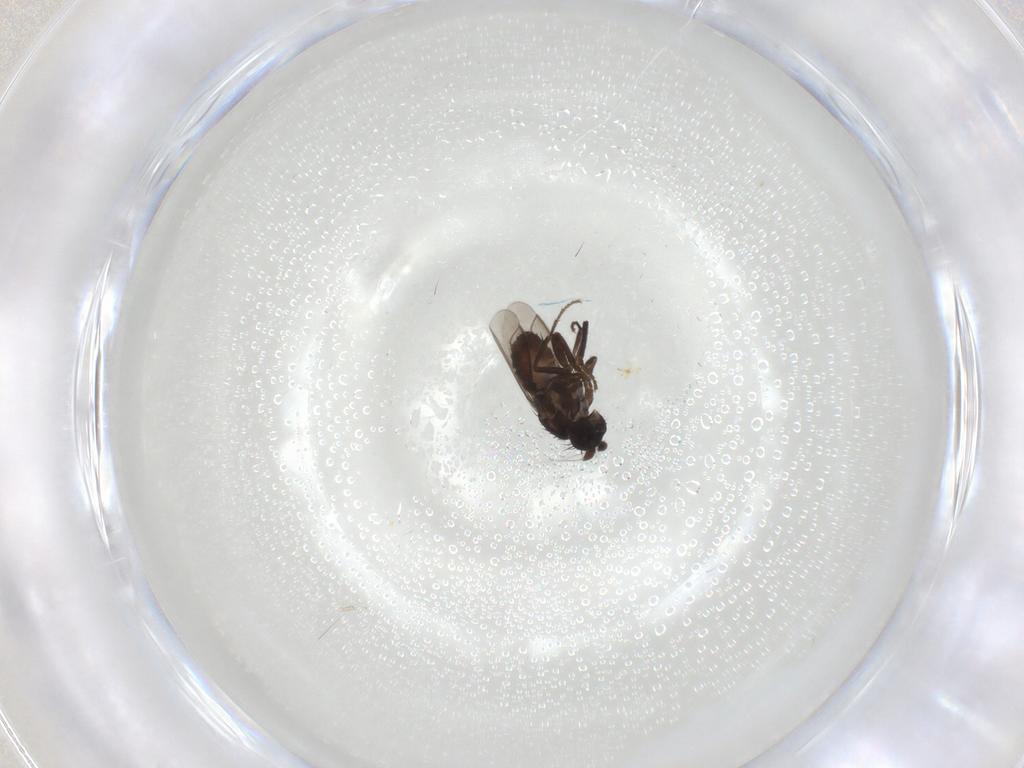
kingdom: Animalia
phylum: Arthropoda
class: Insecta
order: Diptera
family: Sphaeroceridae
